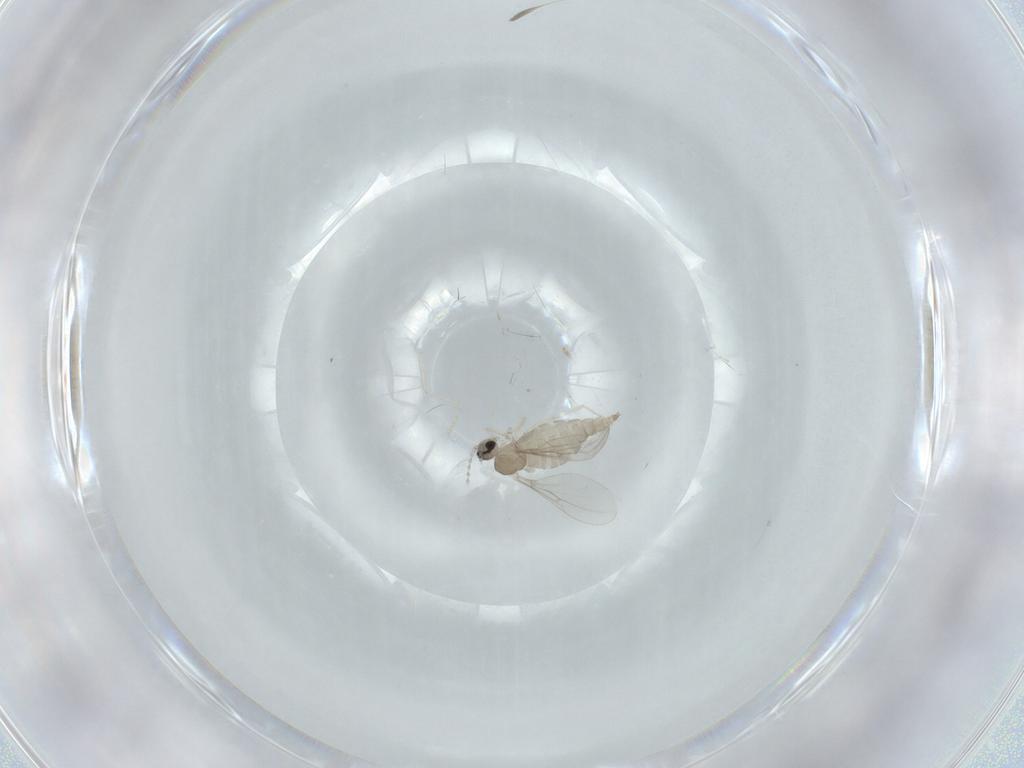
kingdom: Animalia
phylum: Arthropoda
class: Insecta
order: Diptera
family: Cecidomyiidae
